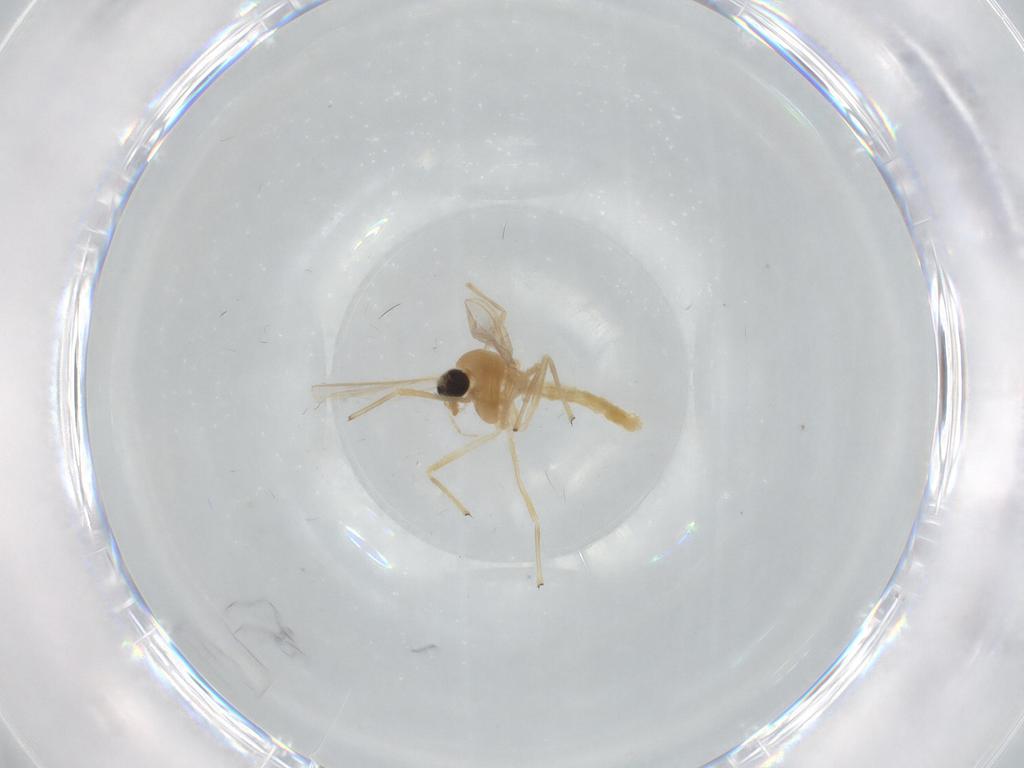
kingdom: Animalia
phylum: Arthropoda
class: Insecta
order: Diptera
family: Chironomidae
